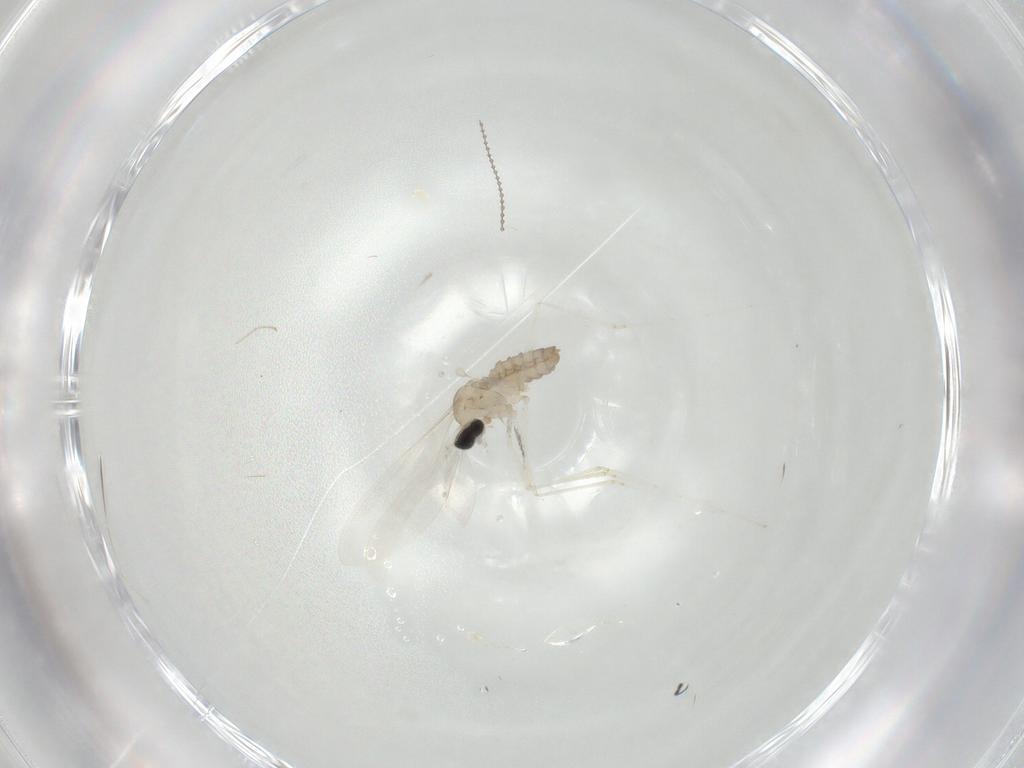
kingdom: Animalia
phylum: Arthropoda
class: Insecta
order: Diptera
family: Cecidomyiidae
